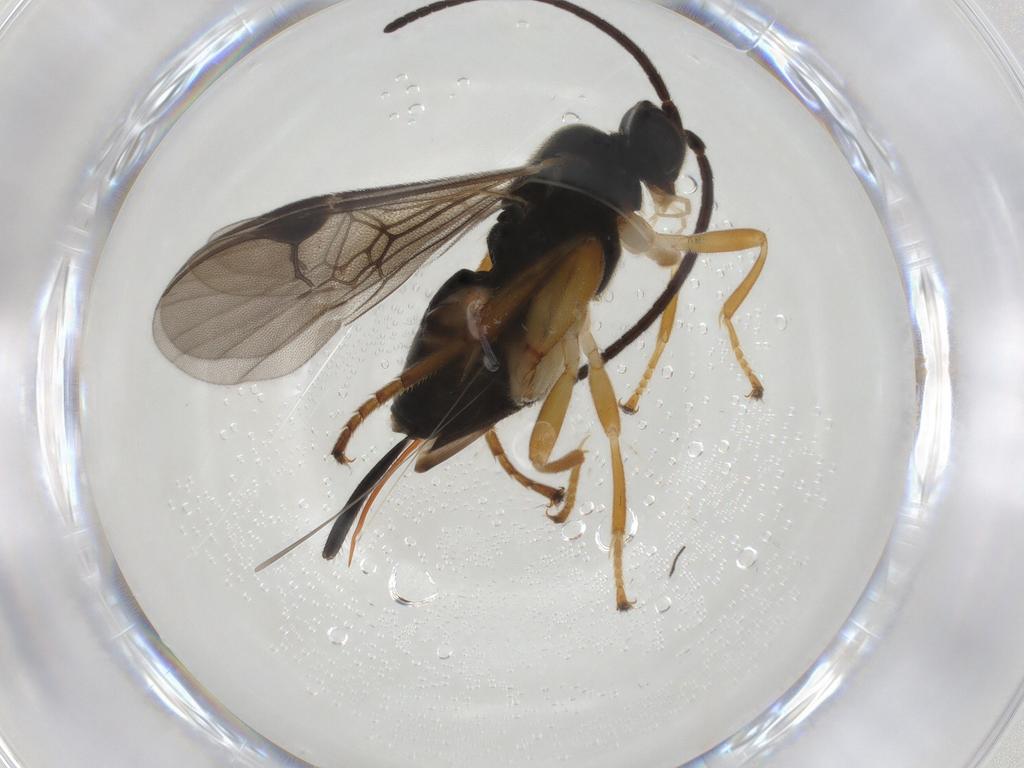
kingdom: Animalia
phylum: Arthropoda
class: Insecta
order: Hymenoptera
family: Braconidae
